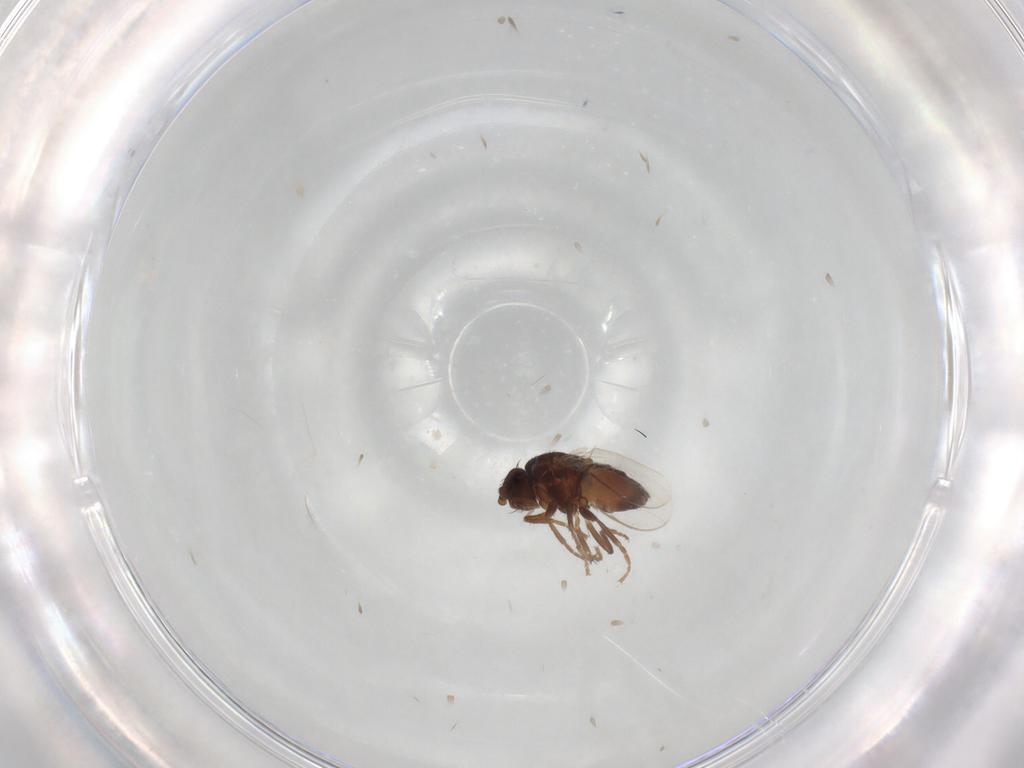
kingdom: Animalia
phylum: Arthropoda
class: Insecta
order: Diptera
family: Sphaeroceridae
